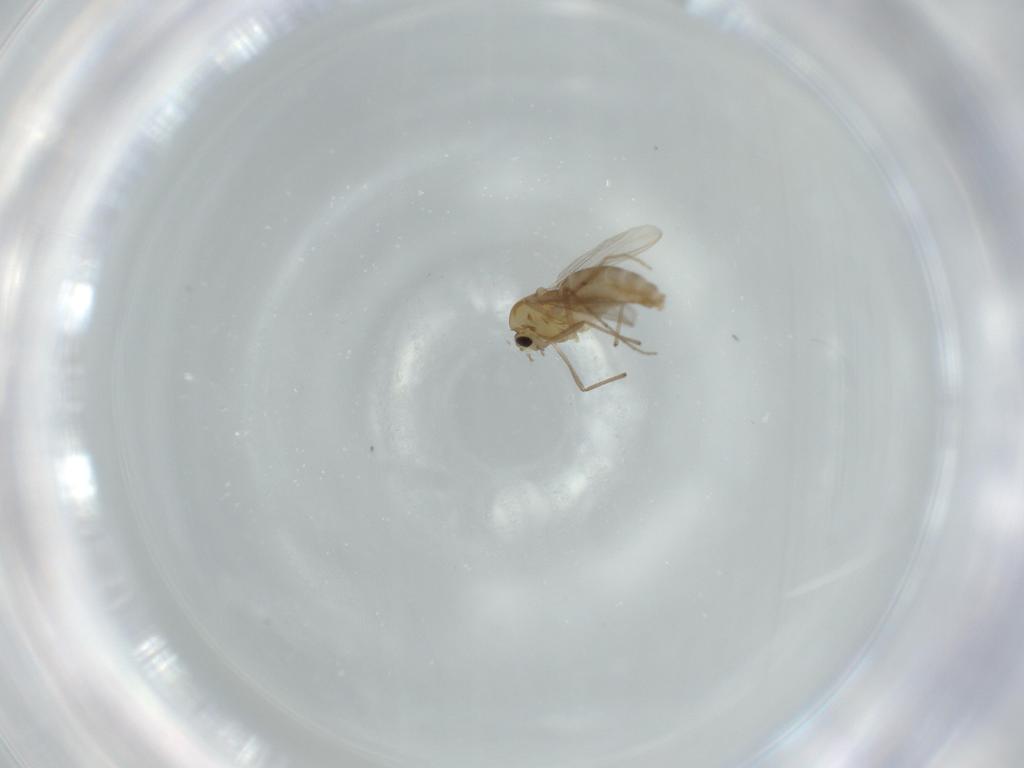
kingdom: Animalia
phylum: Arthropoda
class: Insecta
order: Diptera
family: Chironomidae
